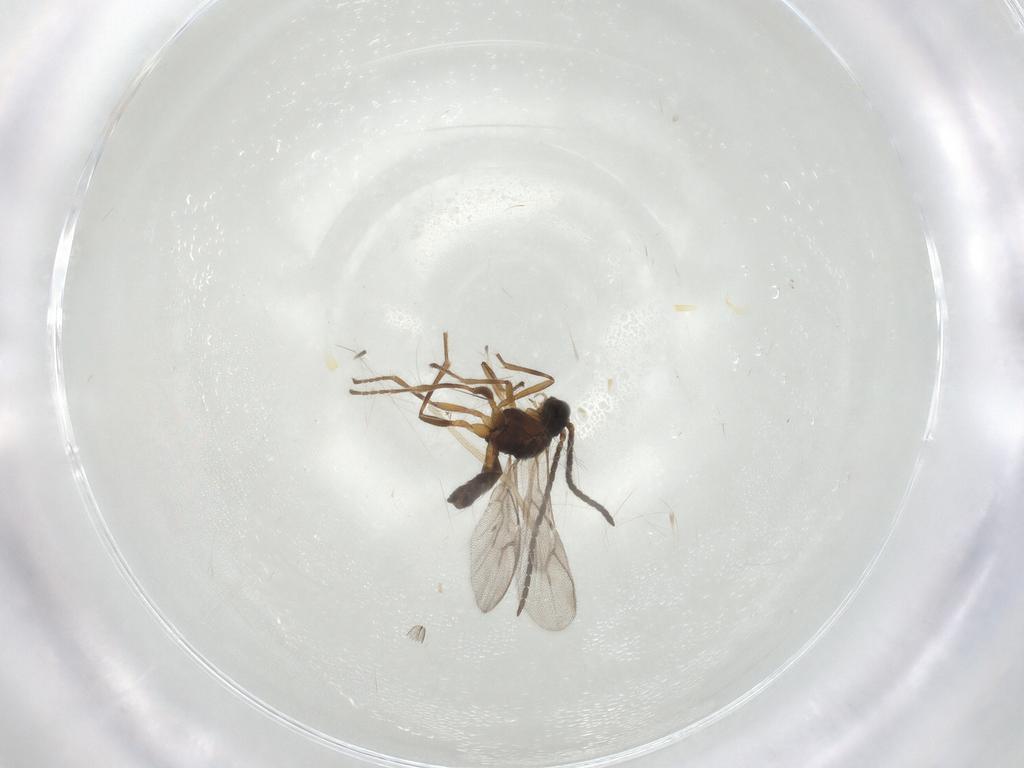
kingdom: Animalia
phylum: Arthropoda
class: Insecta
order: Hymenoptera
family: Braconidae
